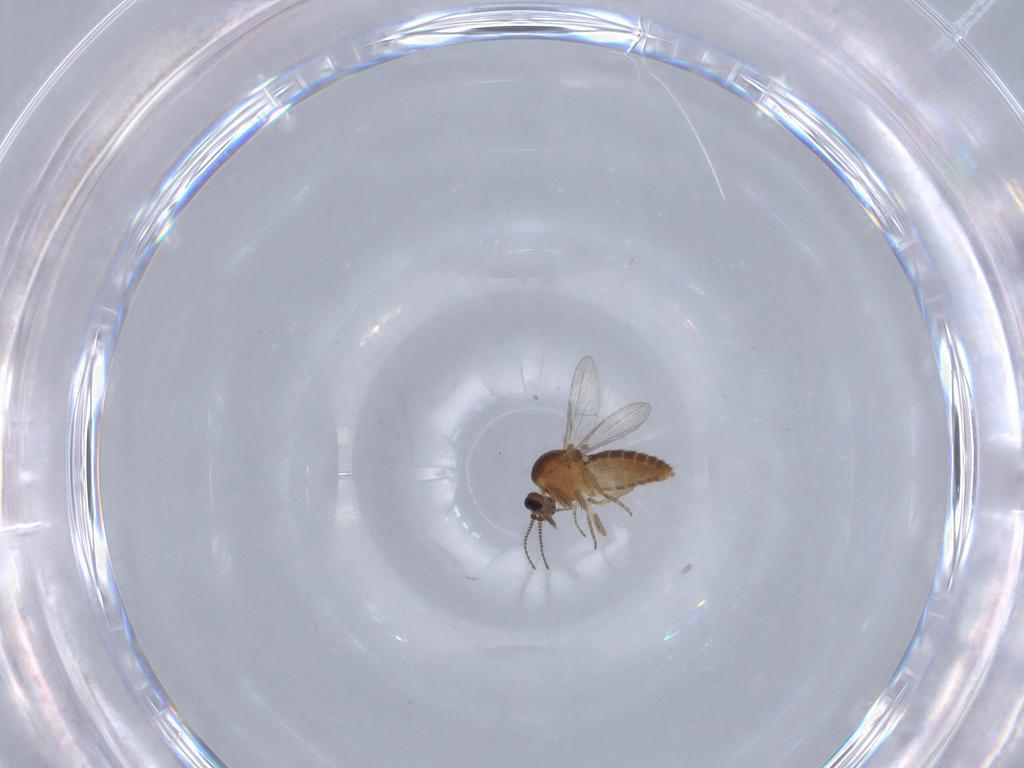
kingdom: Animalia
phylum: Arthropoda
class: Insecta
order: Diptera
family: Ceratopogonidae
